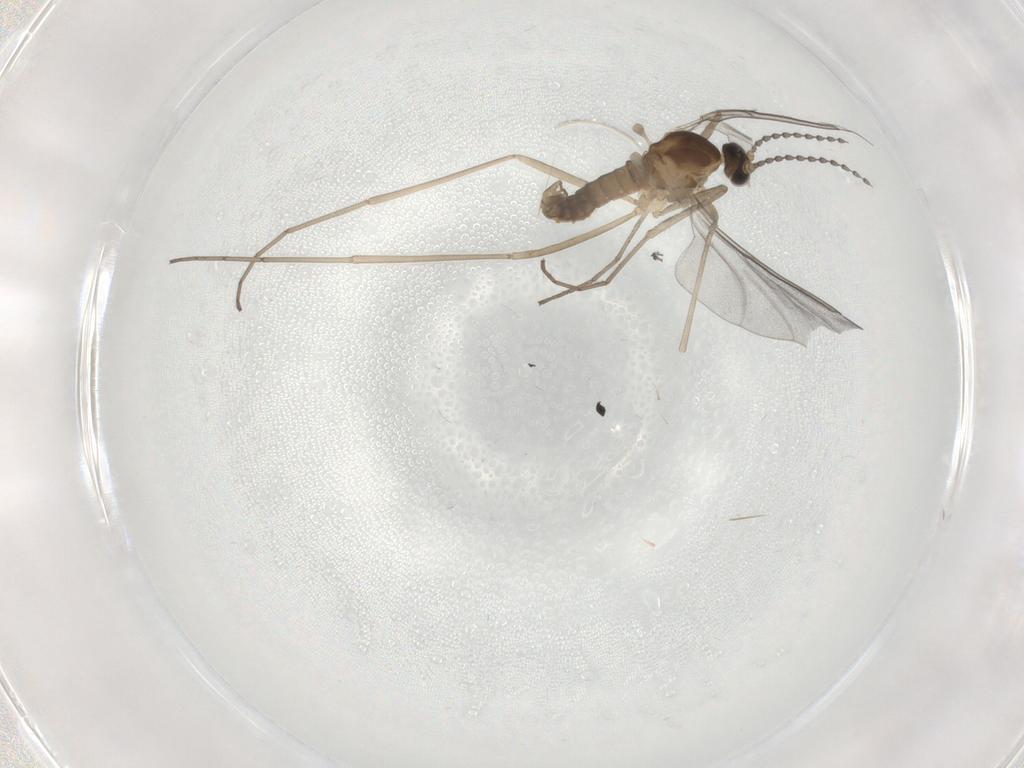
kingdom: Animalia
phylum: Arthropoda
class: Insecta
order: Diptera
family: Cecidomyiidae
